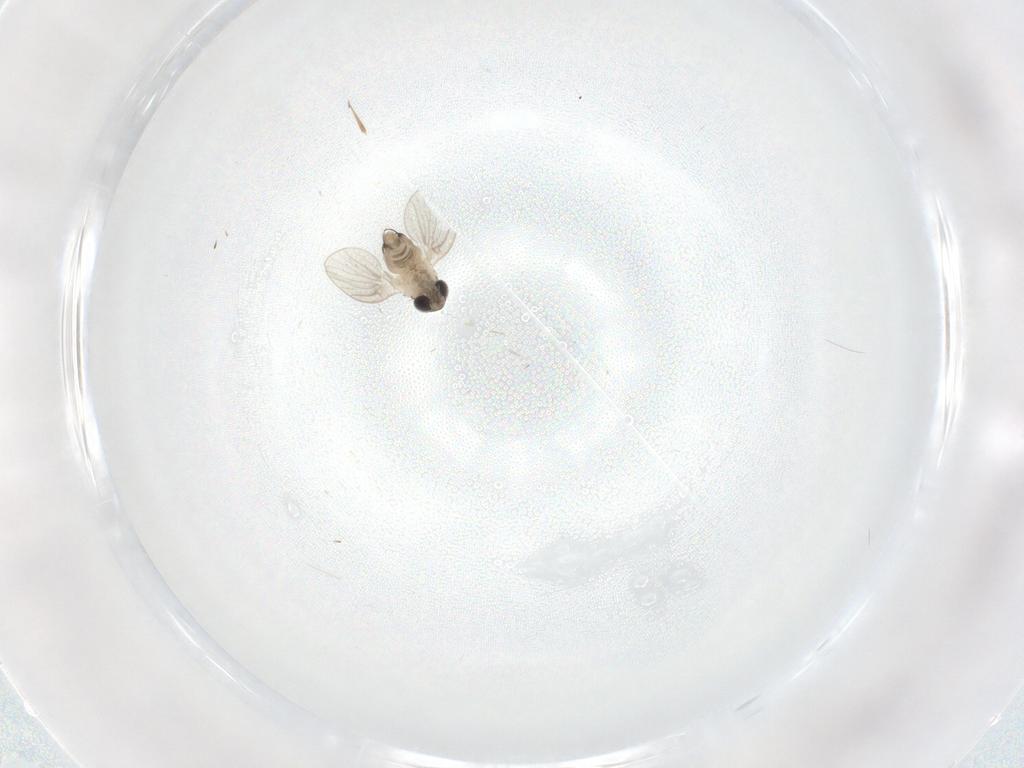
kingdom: Animalia
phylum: Arthropoda
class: Insecta
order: Diptera
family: Psychodidae
